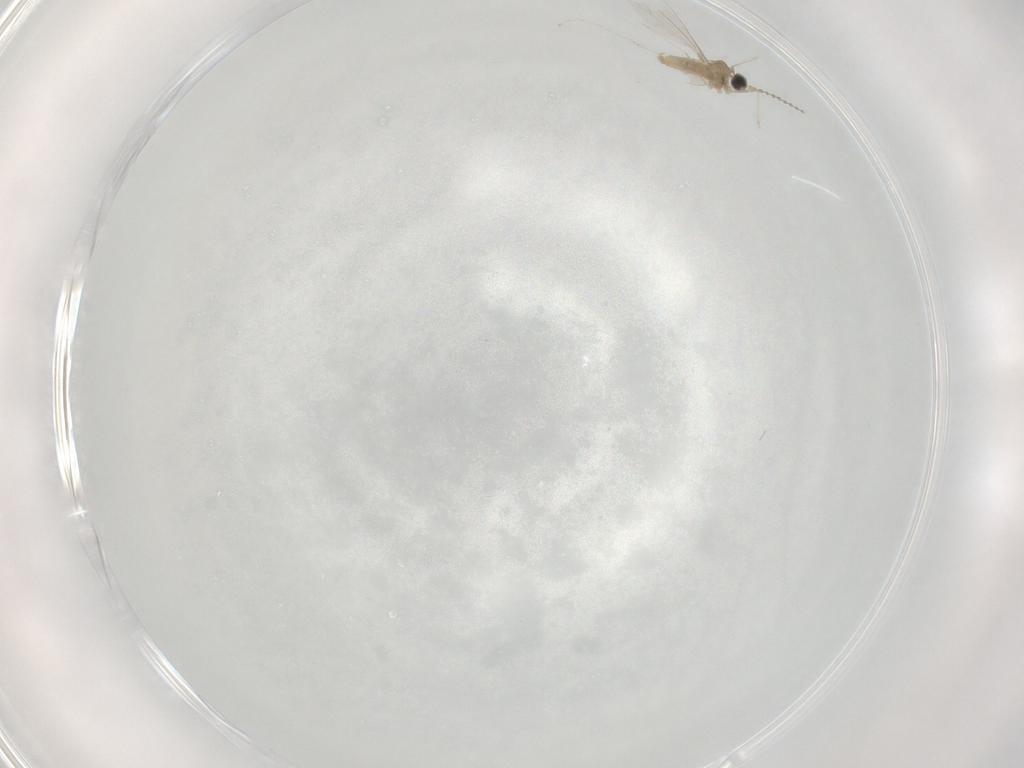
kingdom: Animalia
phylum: Arthropoda
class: Insecta
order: Diptera
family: Cecidomyiidae
